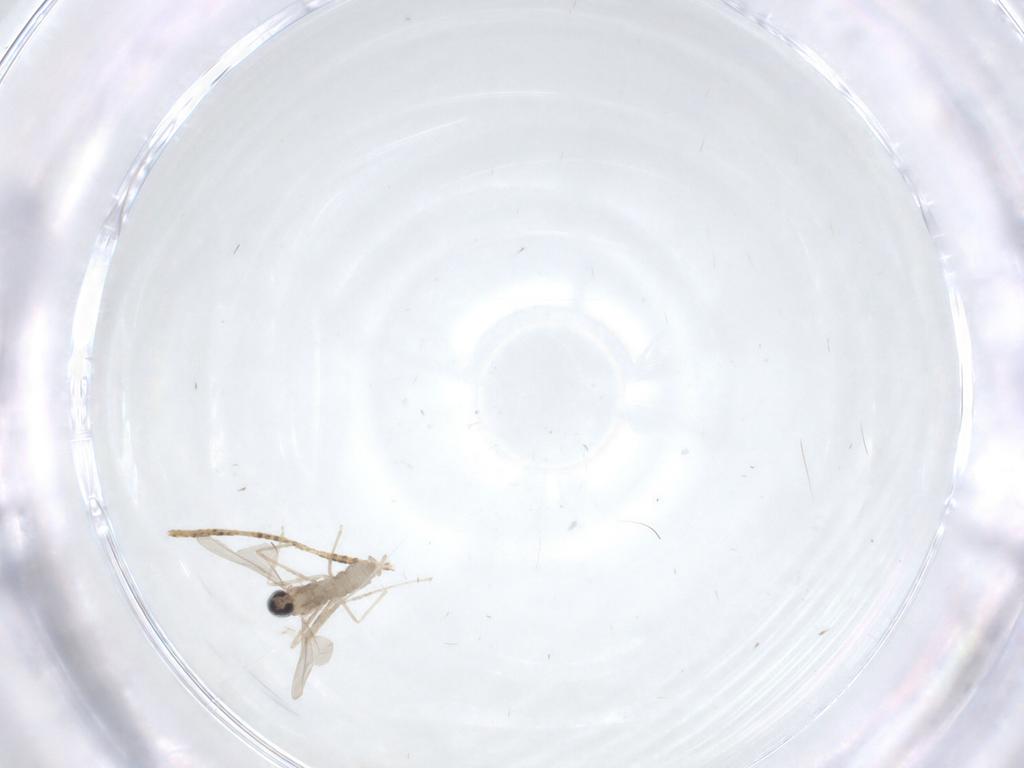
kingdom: Animalia
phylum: Arthropoda
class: Insecta
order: Diptera
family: Cecidomyiidae
